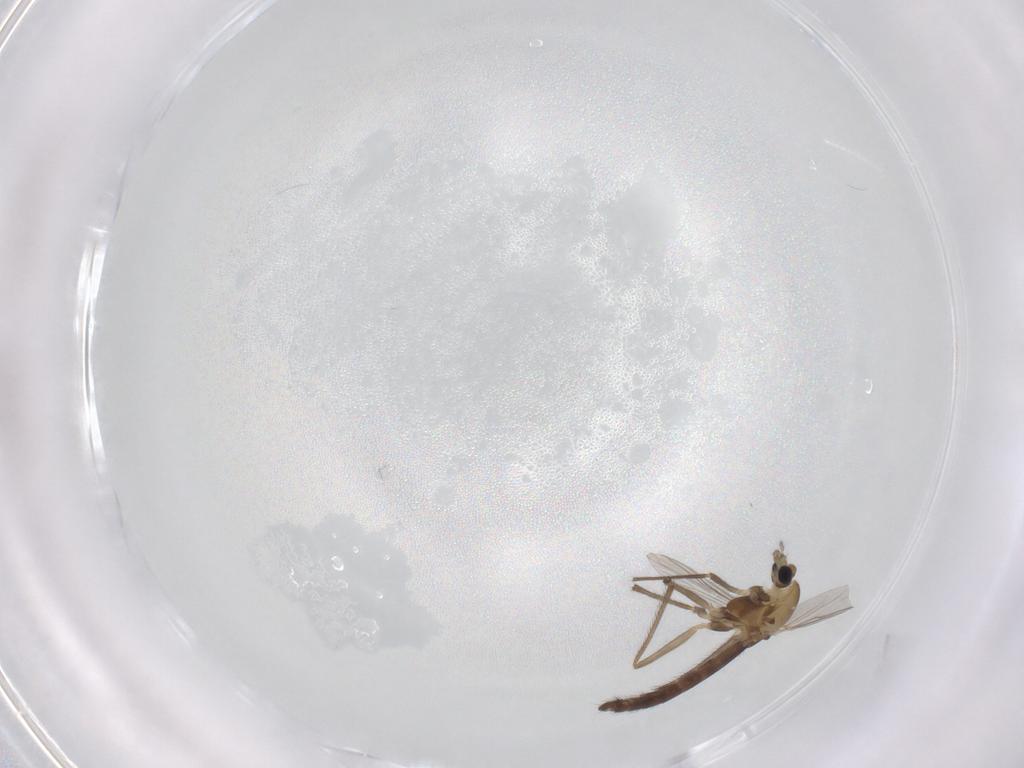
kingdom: Animalia
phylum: Arthropoda
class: Insecta
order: Diptera
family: Chironomidae
